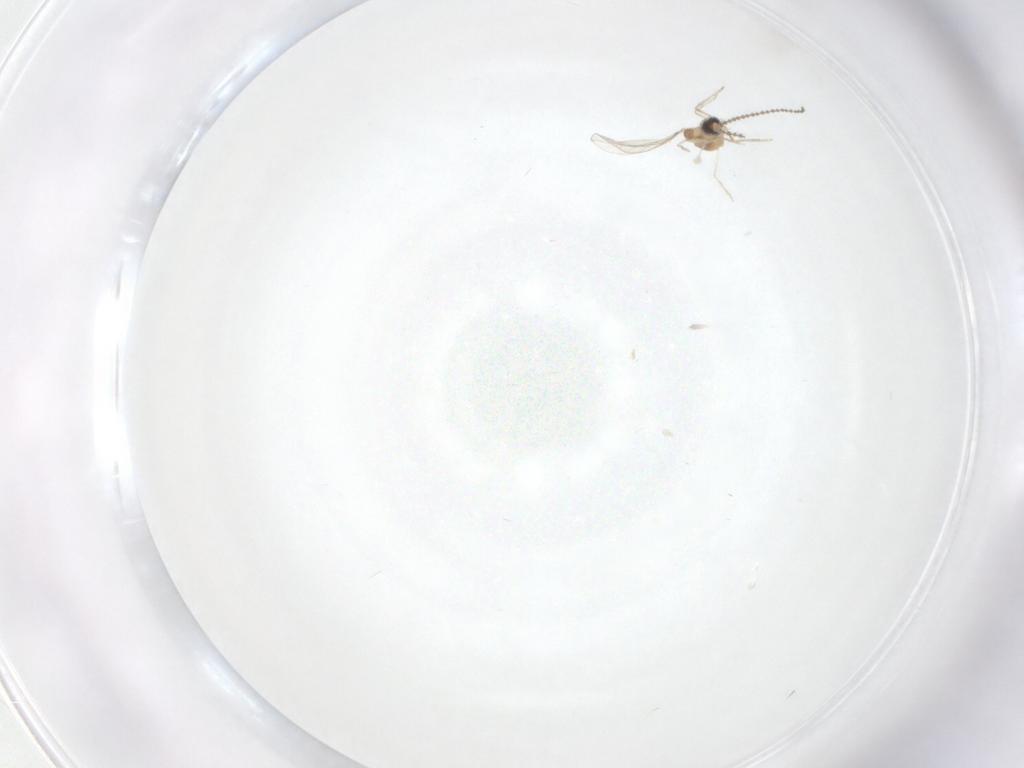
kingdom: Animalia
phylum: Arthropoda
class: Insecta
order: Diptera
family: Cecidomyiidae
